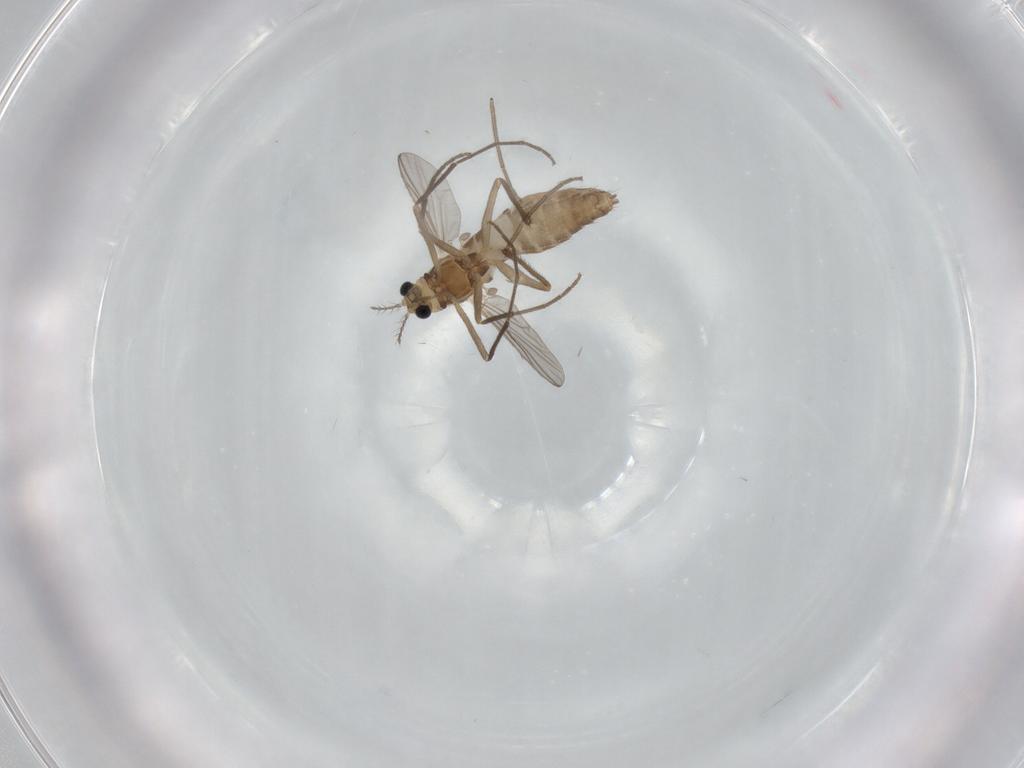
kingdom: Animalia
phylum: Arthropoda
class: Insecta
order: Diptera
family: Chironomidae
